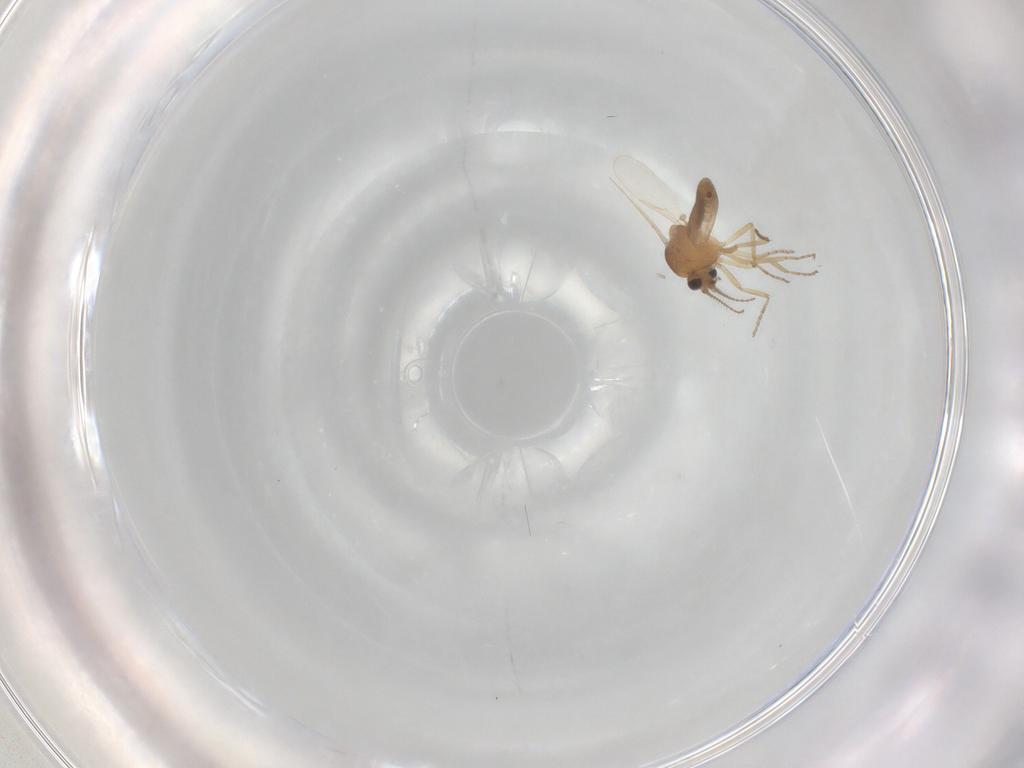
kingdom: Animalia
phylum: Arthropoda
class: Insecta
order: Diptera
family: Ceratopogonidae
